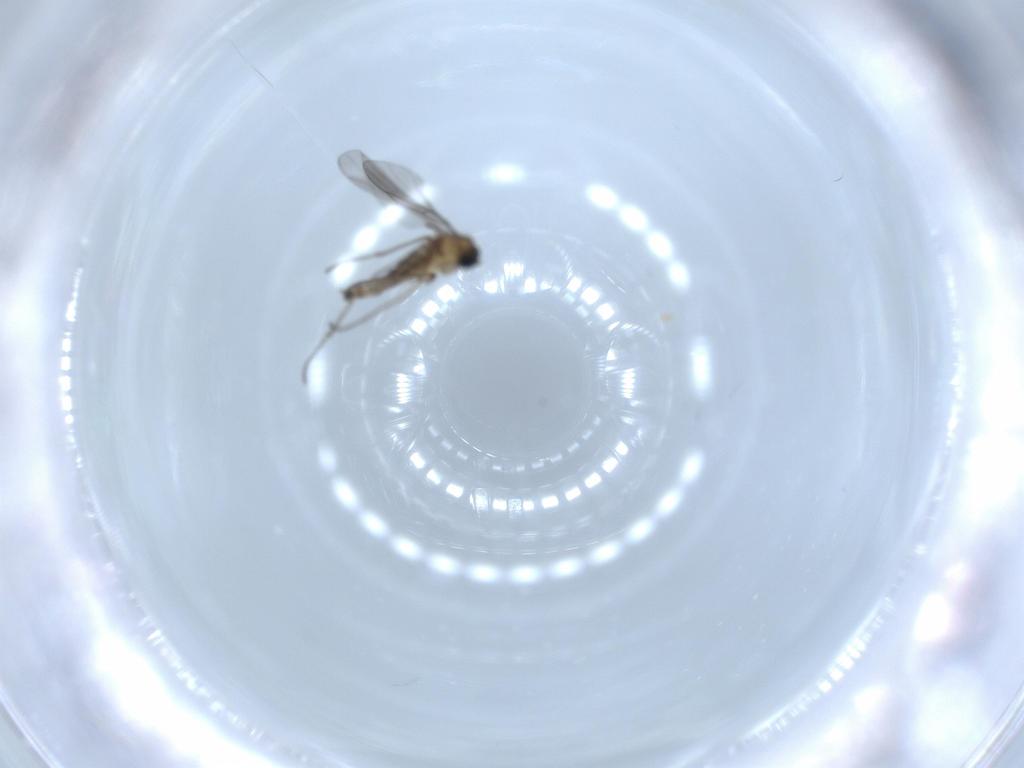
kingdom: Animalia
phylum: Arthropoda
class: Insecta
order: Diptera
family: Sciaridae
